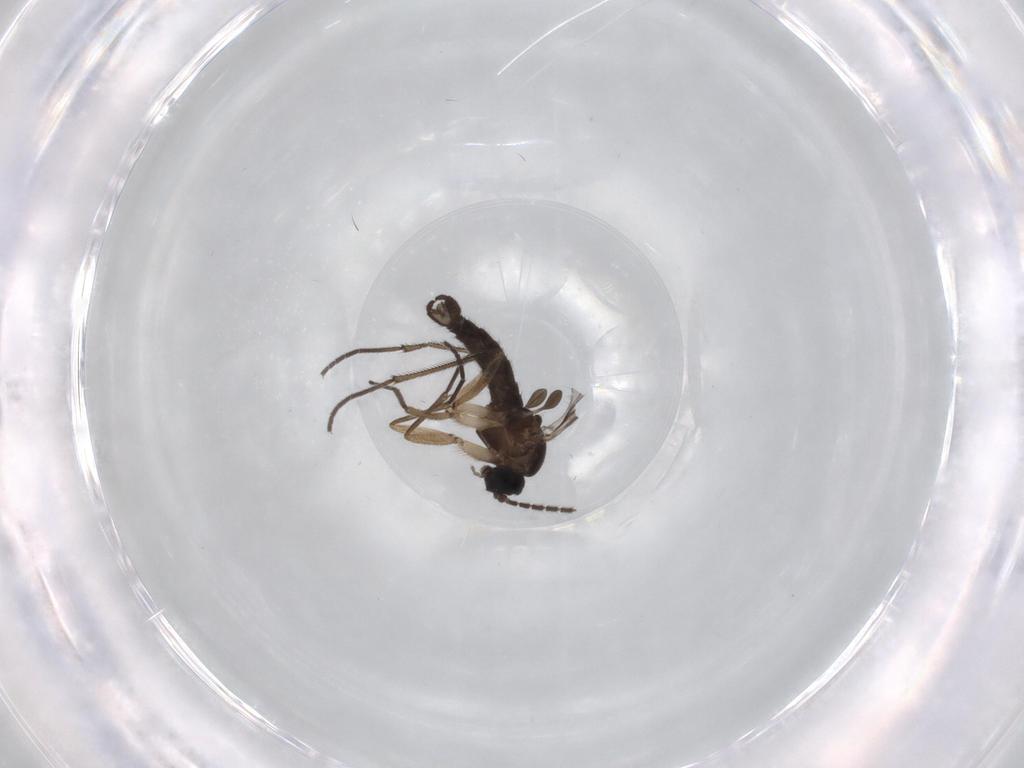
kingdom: Animalia
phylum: Arthropoda
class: Insecta
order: Diptera
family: Sciaridae
